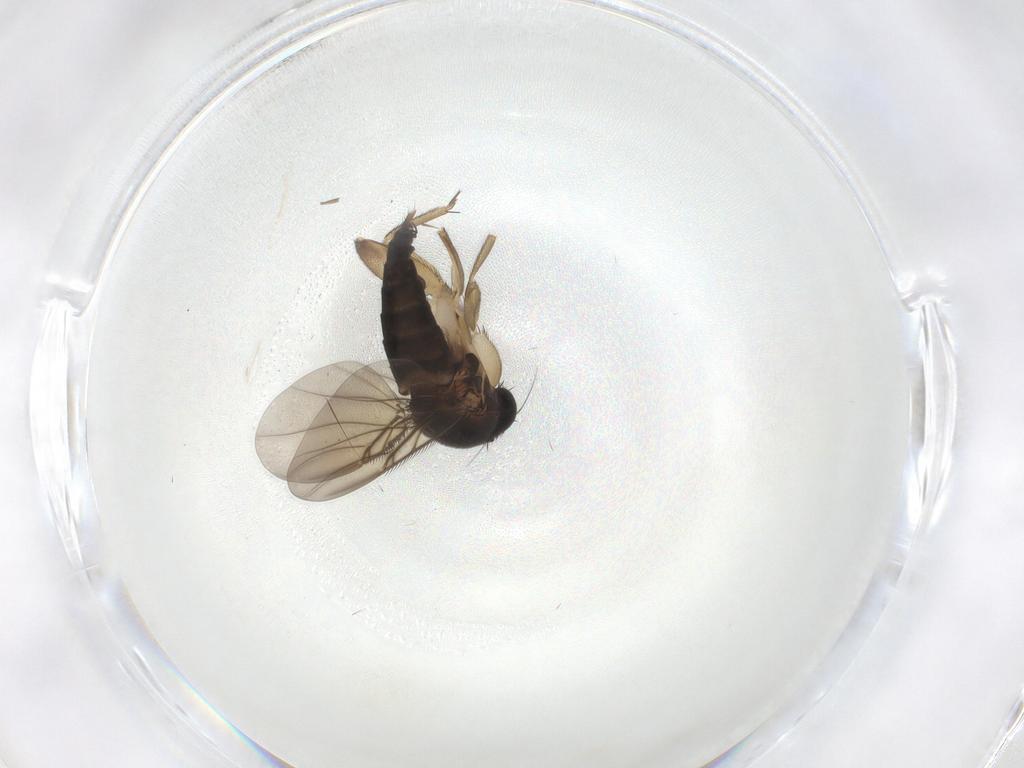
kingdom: Animalia
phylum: Arthropoda
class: Insecta
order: Diptera
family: Phoridae
